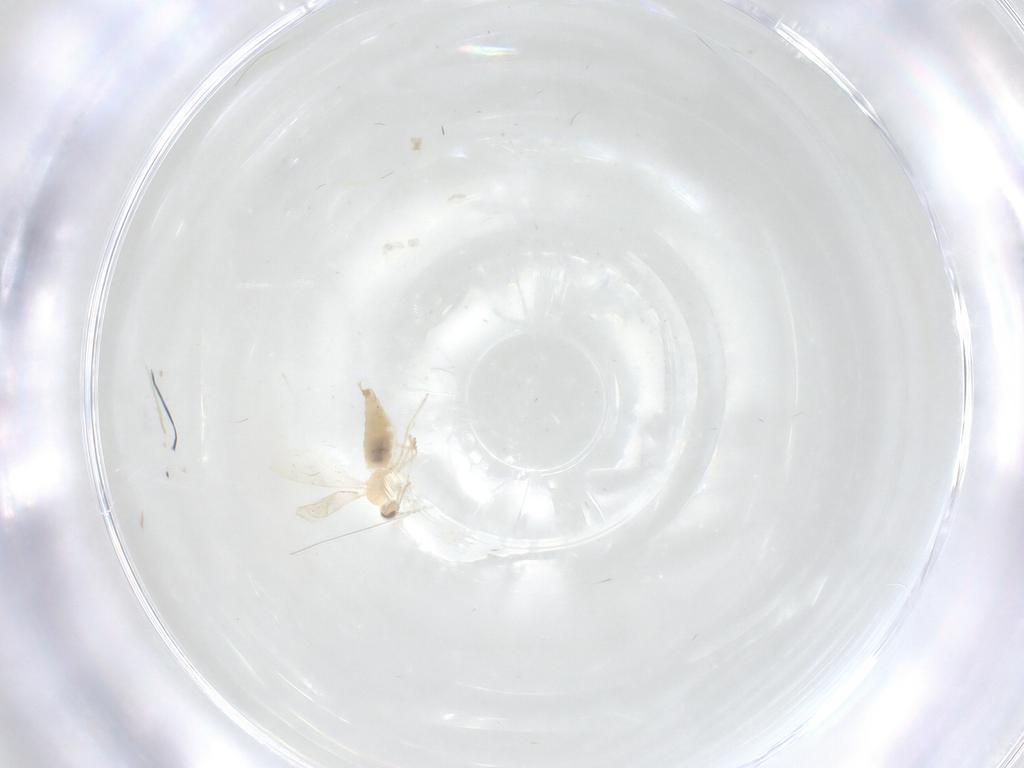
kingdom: Animalia
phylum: Arthropoda
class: Insecta
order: Diptera
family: Cecidomyiidae
